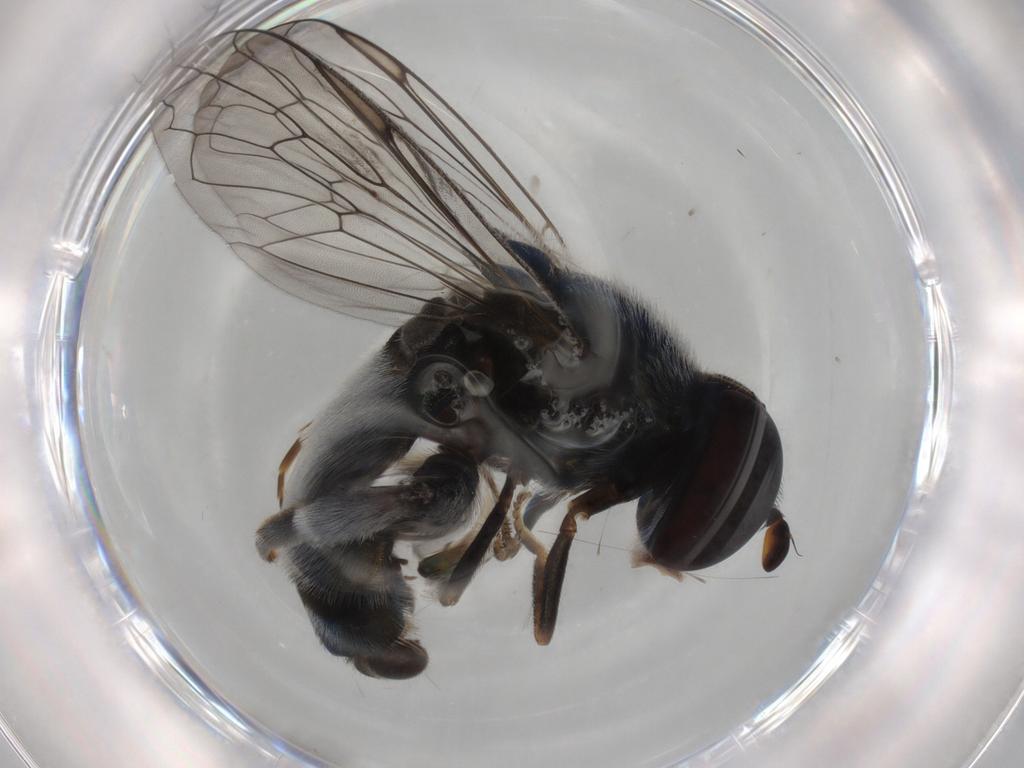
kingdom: Animalia
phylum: Arthropoda
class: Insecta
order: Diptera
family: Syrphidae
